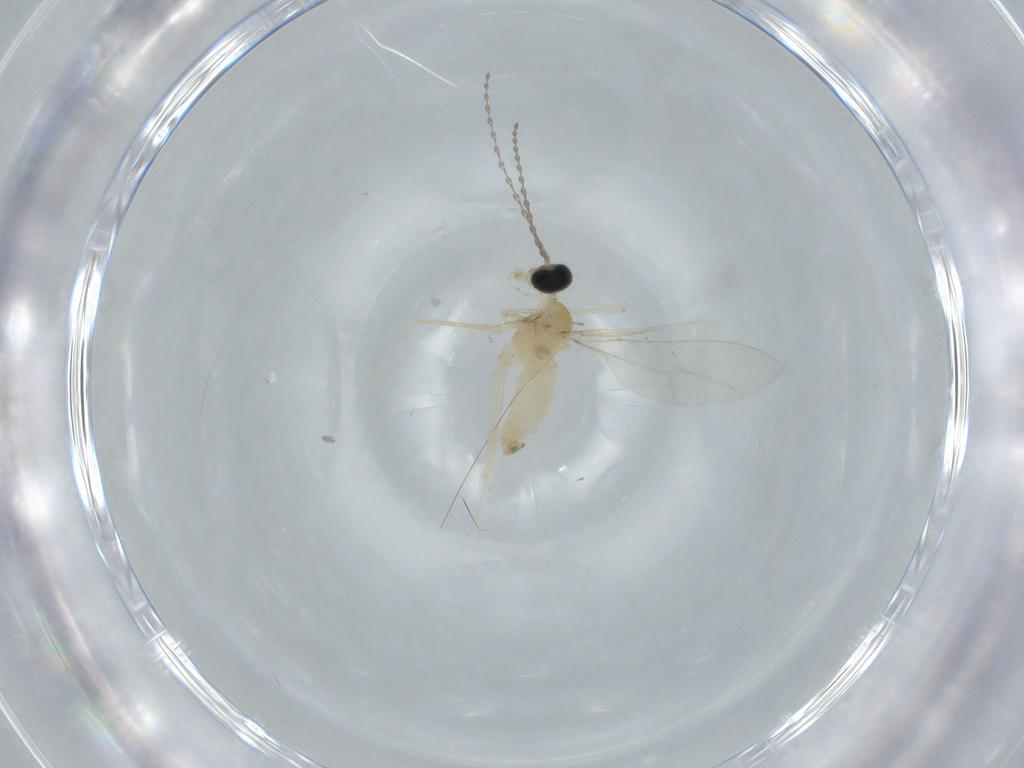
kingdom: Animalia
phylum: Arthropoda
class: Insecta
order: Diptera
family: Cecidomyiidae
